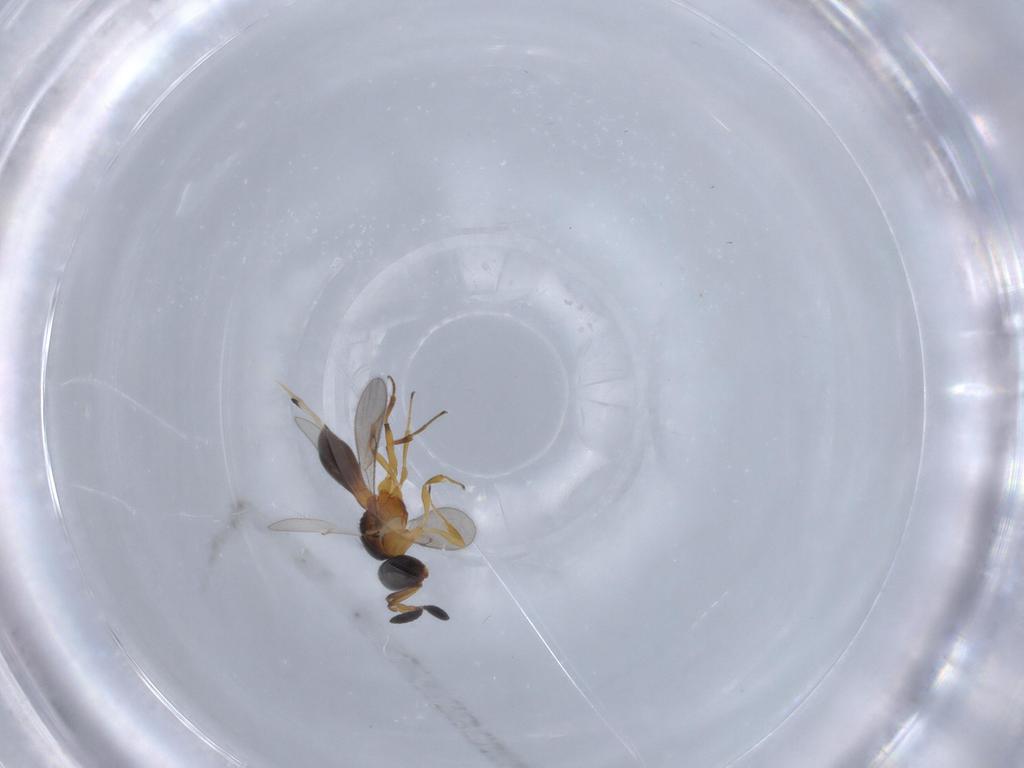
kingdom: Animalia
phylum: Arthropoda
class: Insecta
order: Hymenoptera
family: Scelionidae
